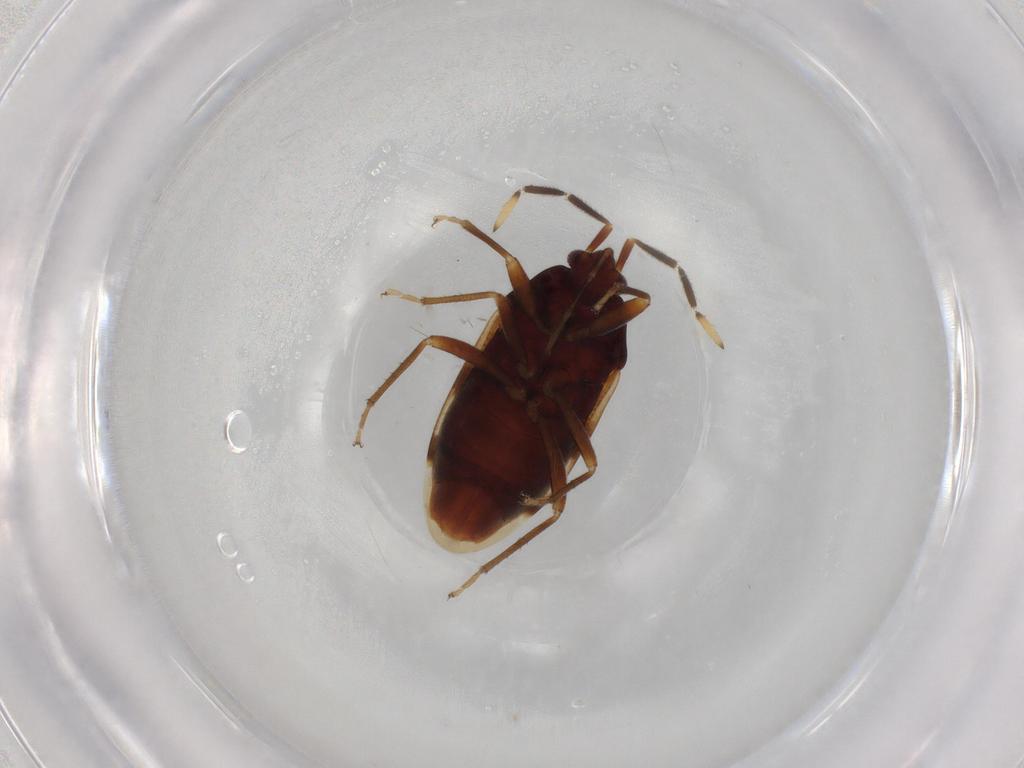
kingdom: Animalia
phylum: Arthropoda
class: Insecta
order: Hemiptera
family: Rhyparochromidae
